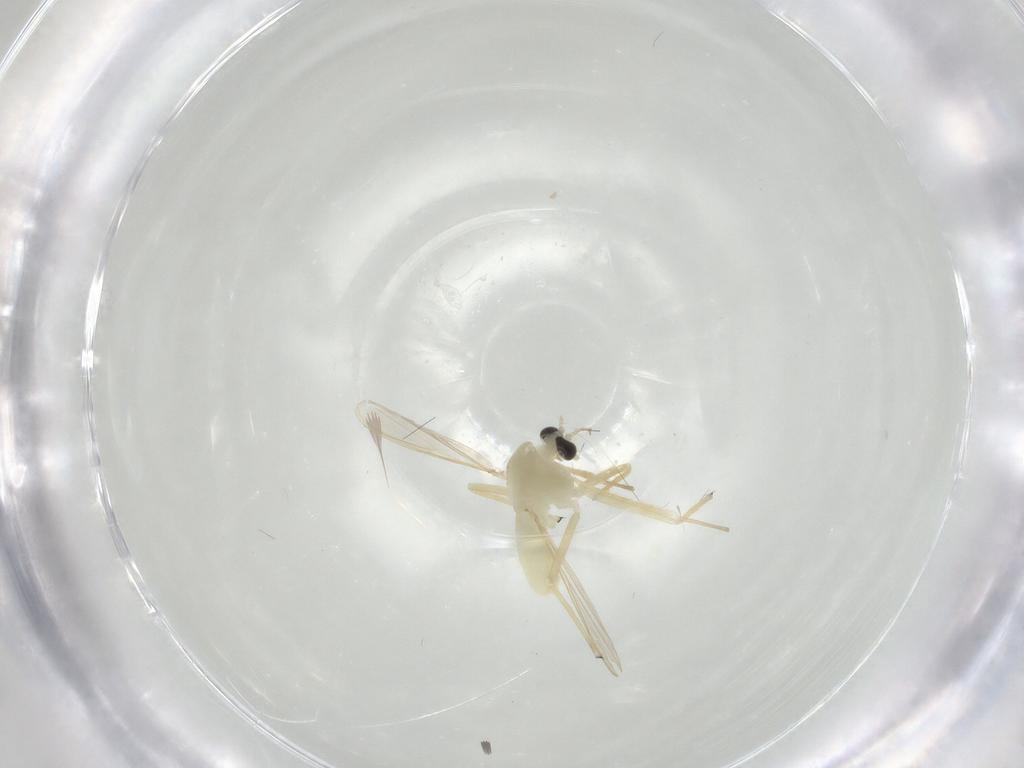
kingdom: Animalia
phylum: Arthropoda
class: Insecta
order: Diptera
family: Chironomidae
